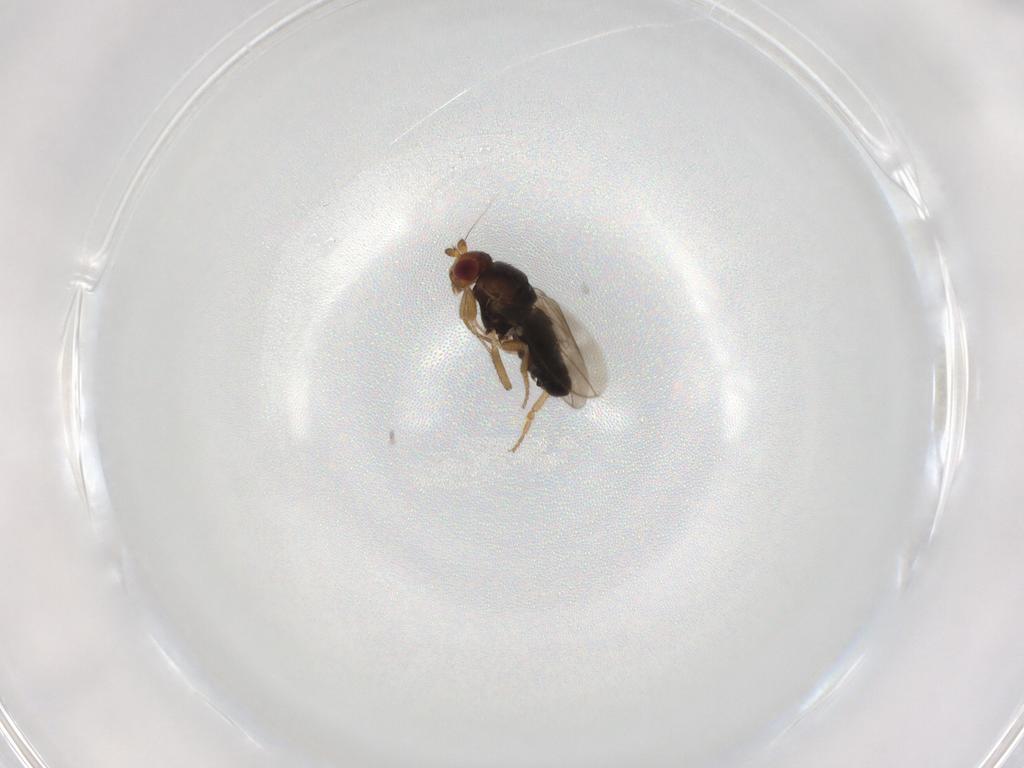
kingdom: Animalia
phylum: Arthropoda
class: Insecta
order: Diptera
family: Sphaeroceridae
